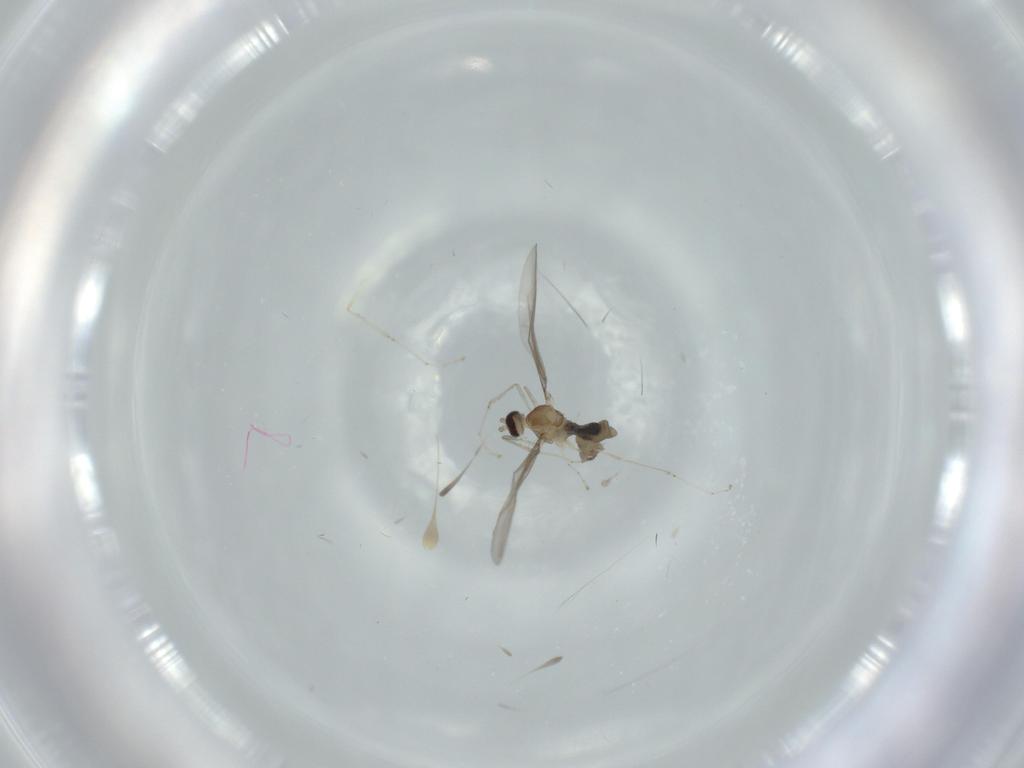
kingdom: Animalia
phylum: Arthropoda
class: Insecta
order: Diptera
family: Cecidomyiidae
